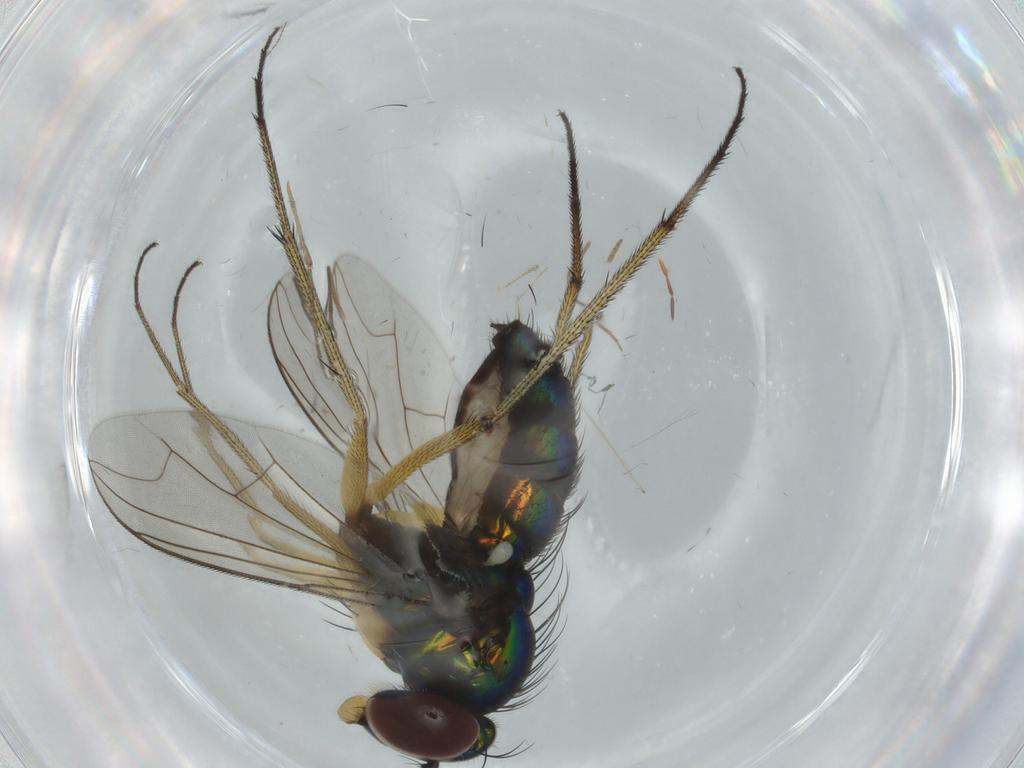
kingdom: Animalia
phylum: Arthropoda
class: Insecta
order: Diptera
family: Dolichopodidae
